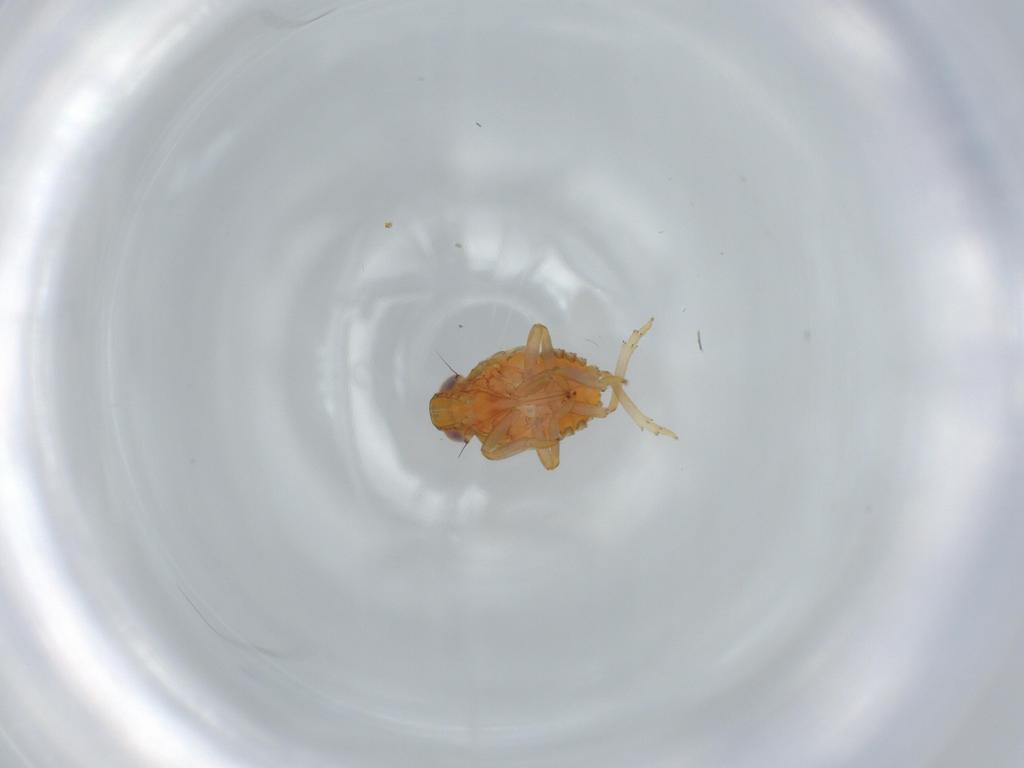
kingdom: Animalia
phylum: Arthropoda
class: Insecta
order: Hemiptera
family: Issidae
